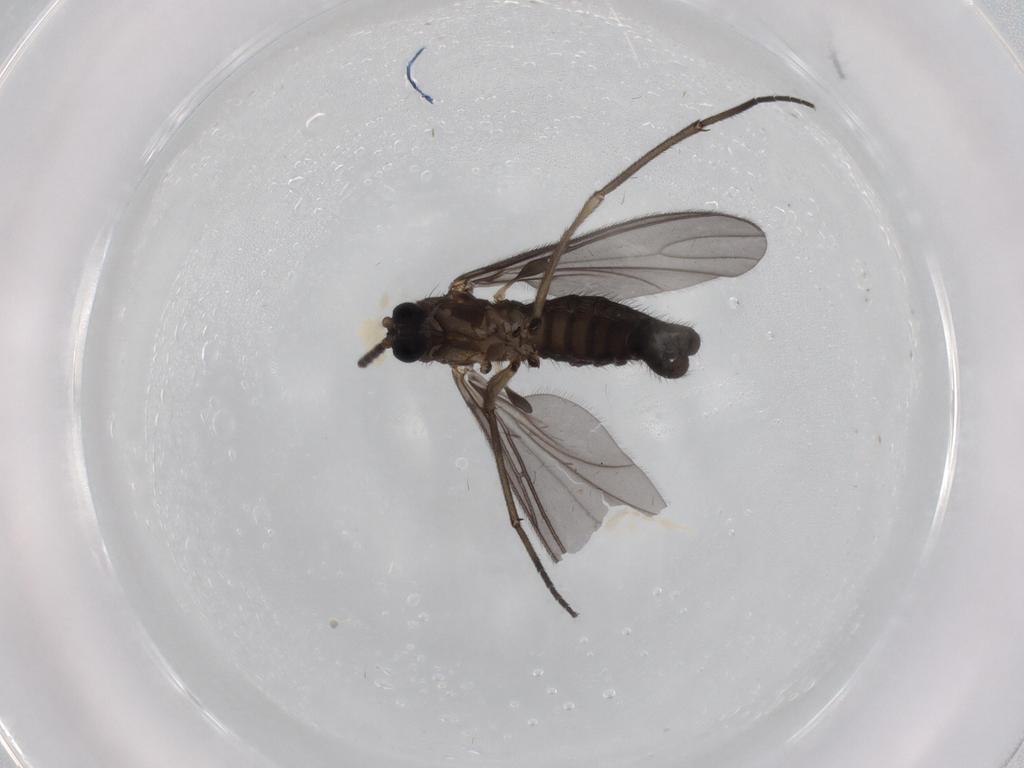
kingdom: Animalia
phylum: Arthropoda
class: Insecta
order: Diptera
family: Sciaridae
